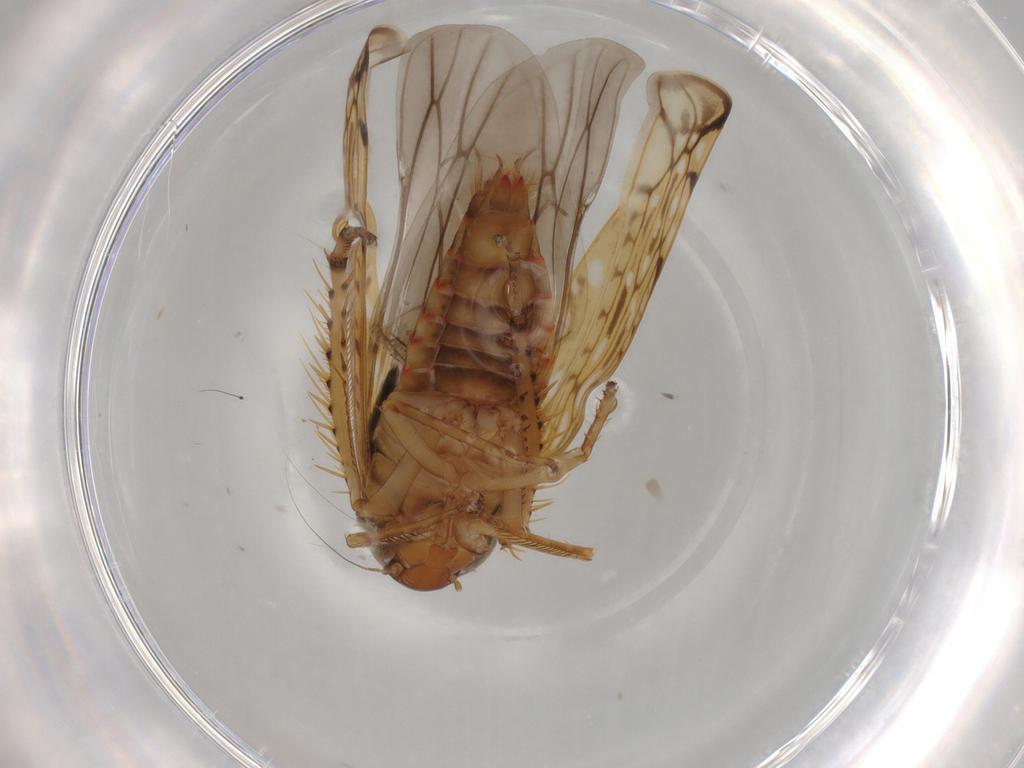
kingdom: Animalia
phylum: Arthropoda
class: Insecta
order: Hemiptera
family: Cicadellidae
